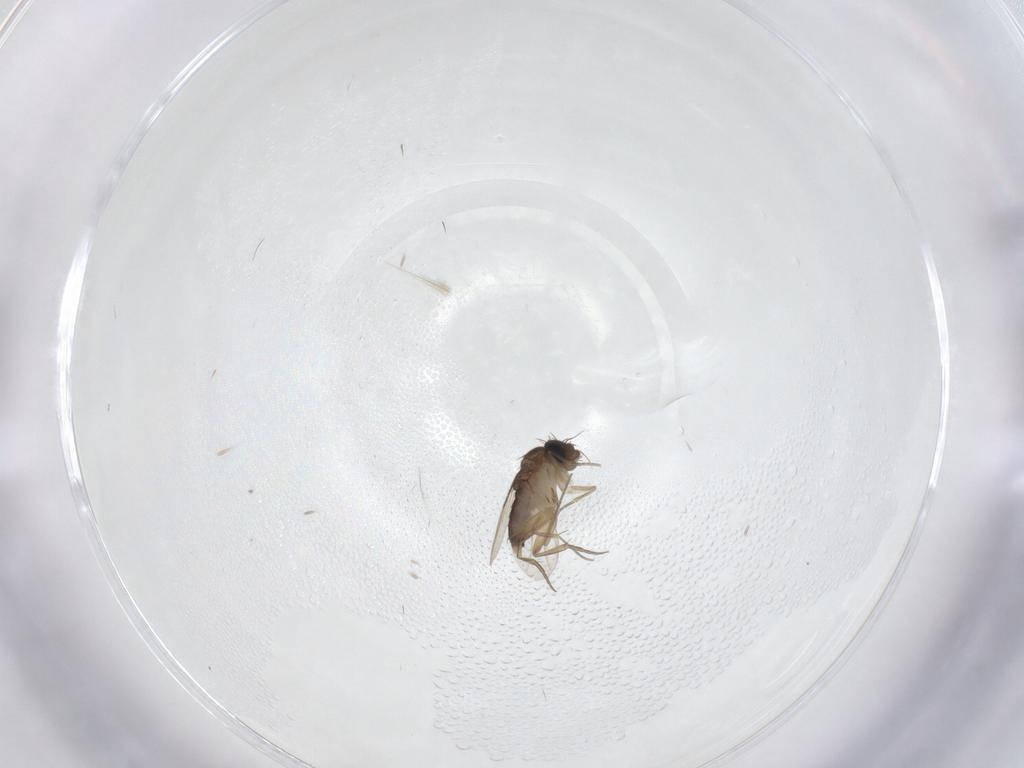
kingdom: Animalia
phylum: Arthropoda
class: Insecta
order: Diptera
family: Phoridae
